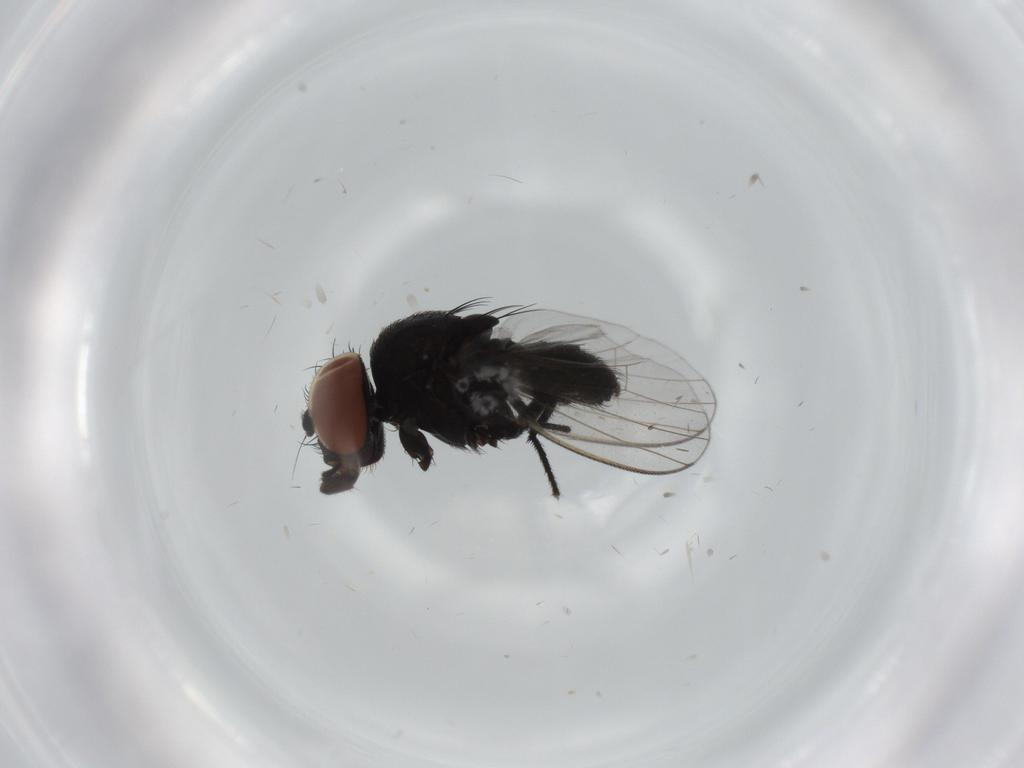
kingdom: Animalia
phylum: Arthropoda
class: Insecta
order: Diptera
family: Milichiidae
